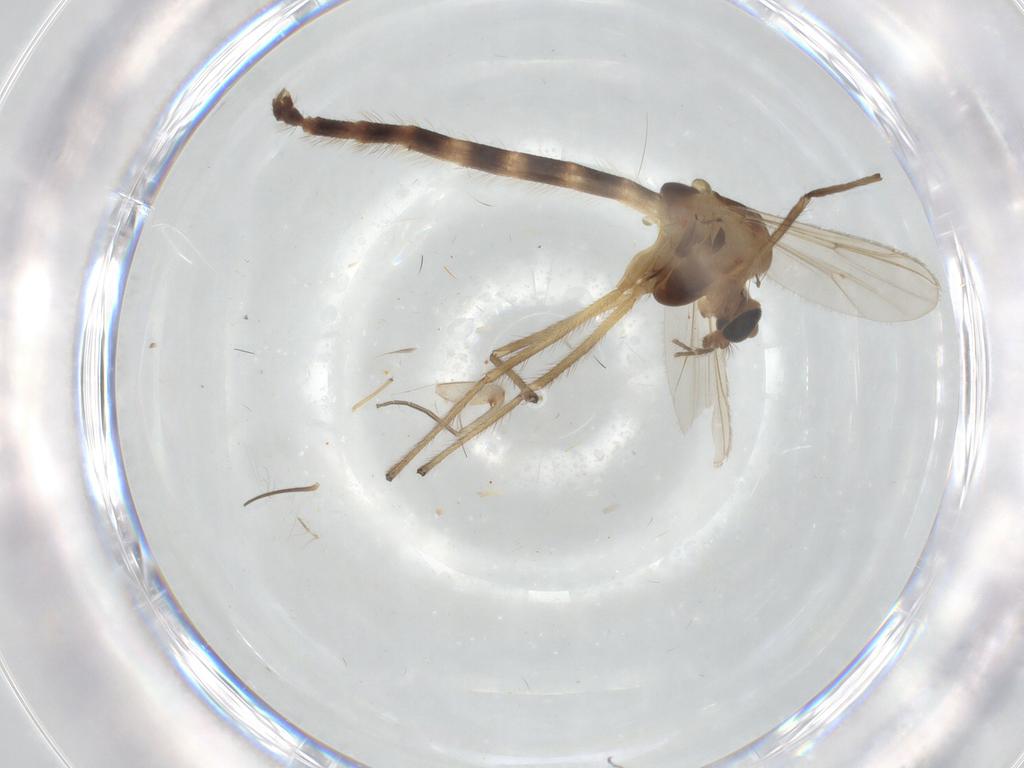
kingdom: Animalia
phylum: Arthropoda
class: Insecta
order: Diptera
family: Chironomidae
